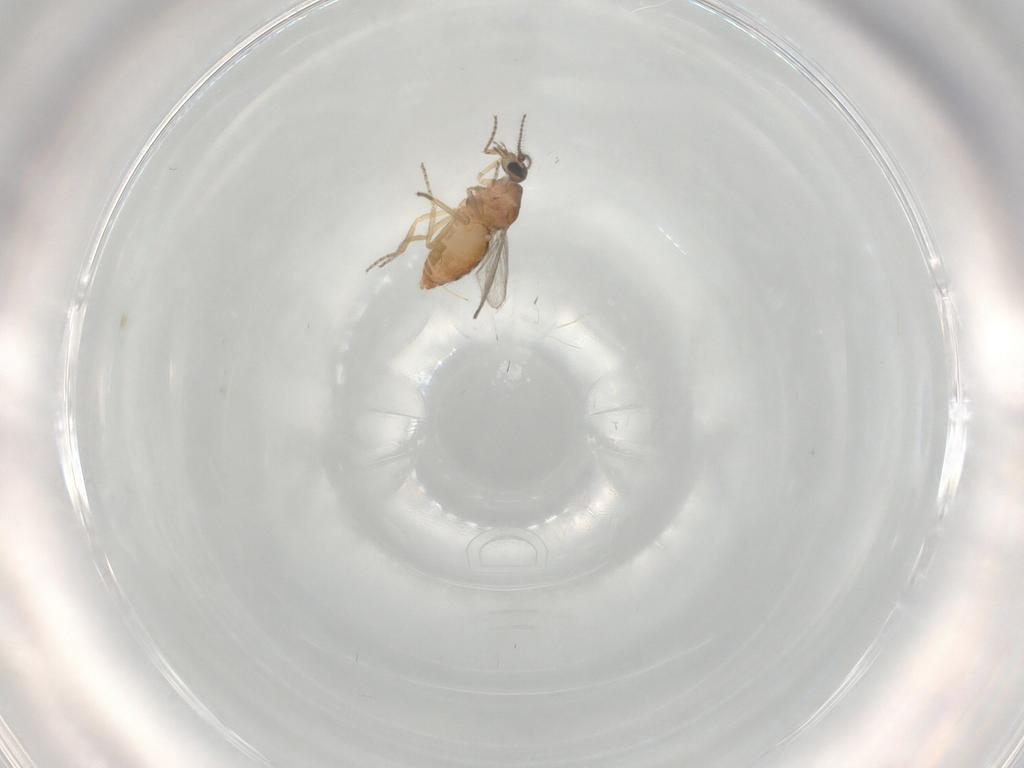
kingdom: Animalia
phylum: Arthropoda
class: Insecta
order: Diptera
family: Ceratopogonidae
